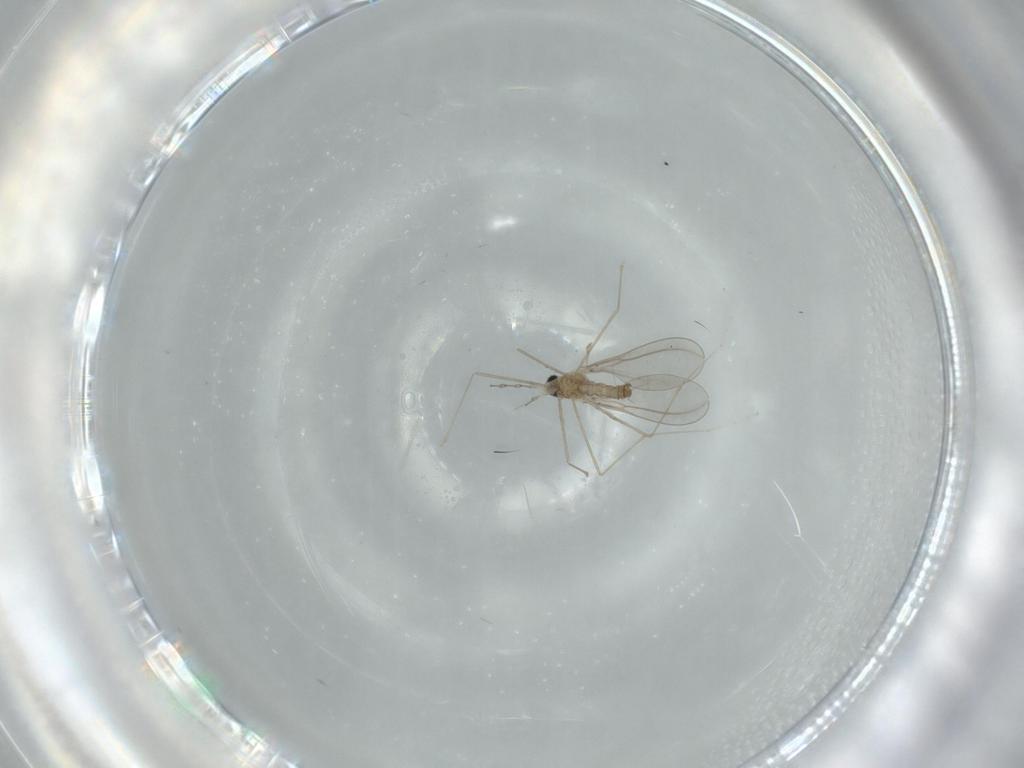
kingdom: Animalia
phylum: Arthropoda
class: Insecta
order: Diptera
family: Cecidomyiidae
